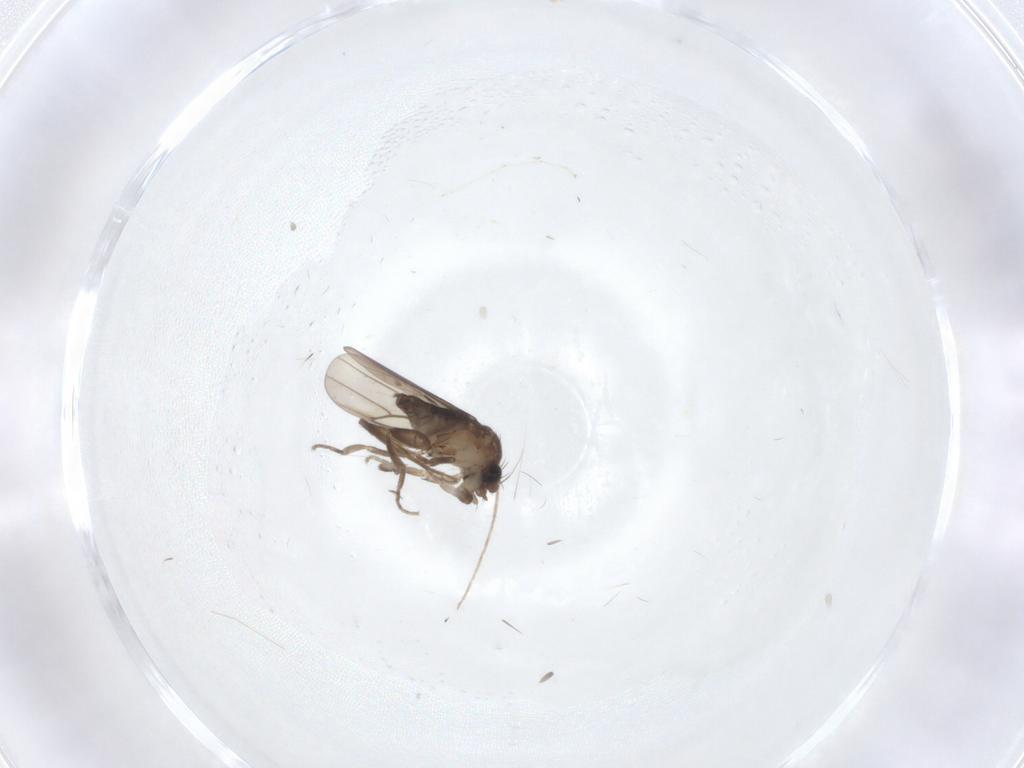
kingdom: Animalia
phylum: Arthropoda
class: Insecta
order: Diptera
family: Chironomidae
